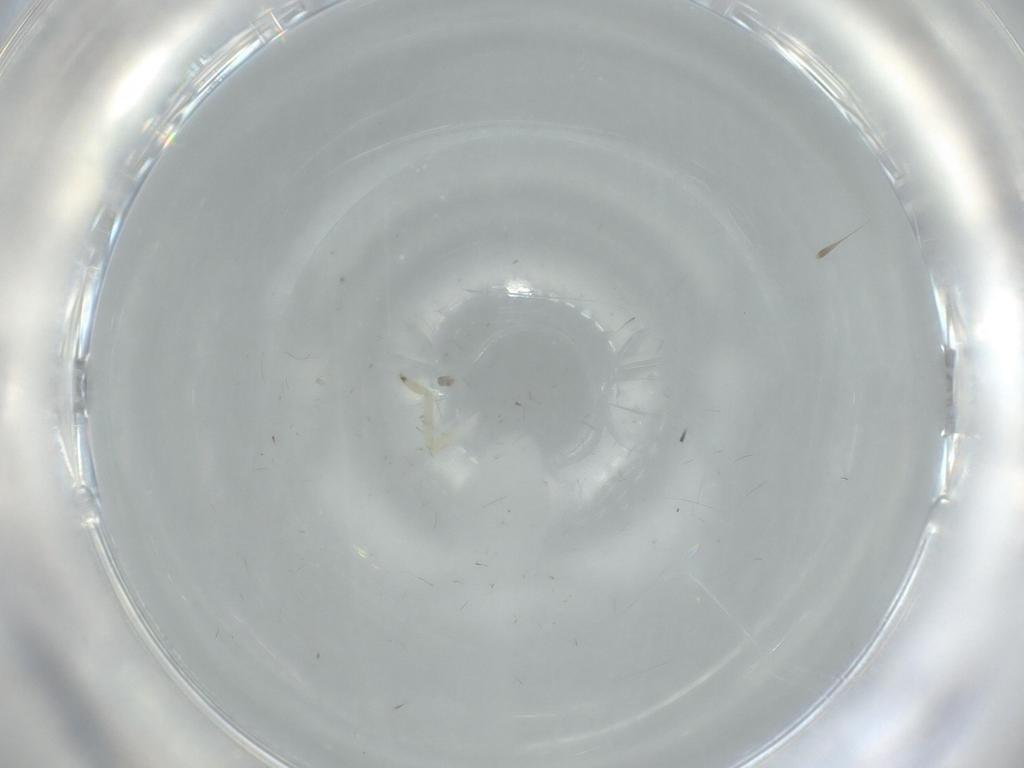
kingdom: Animalia
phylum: Arthropoda
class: Insecta
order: Hemiptera
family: Tropiduchidae
